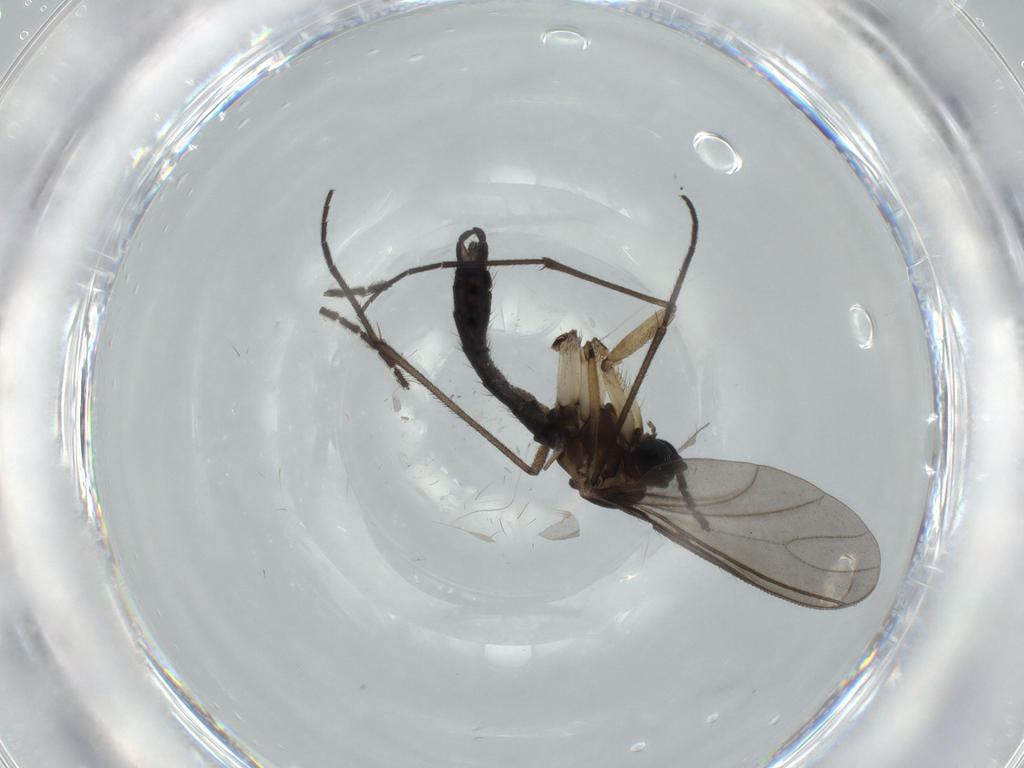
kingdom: Animalia
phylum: Arthropoda
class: Insecta
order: Diptera
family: Sciaridae
